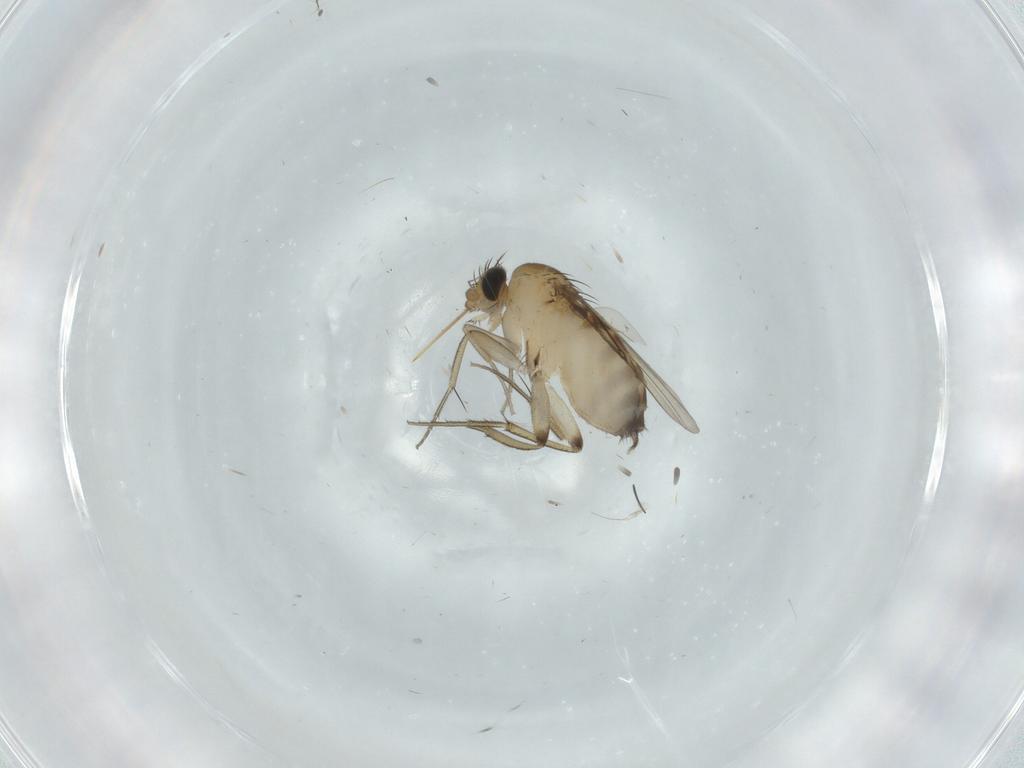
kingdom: Animalia
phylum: Arthropoda
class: Insecta
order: Diptera
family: Phoridae
